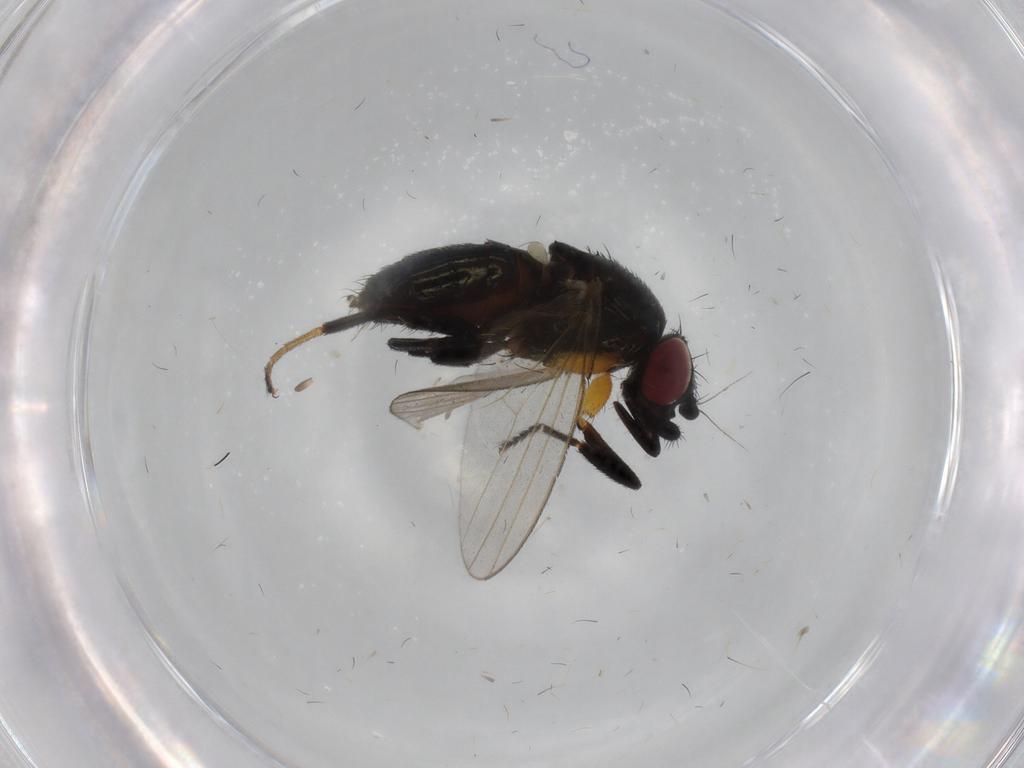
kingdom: Animalia
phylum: Arthropoda
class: Insecta
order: Diptera
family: Milichiidae
